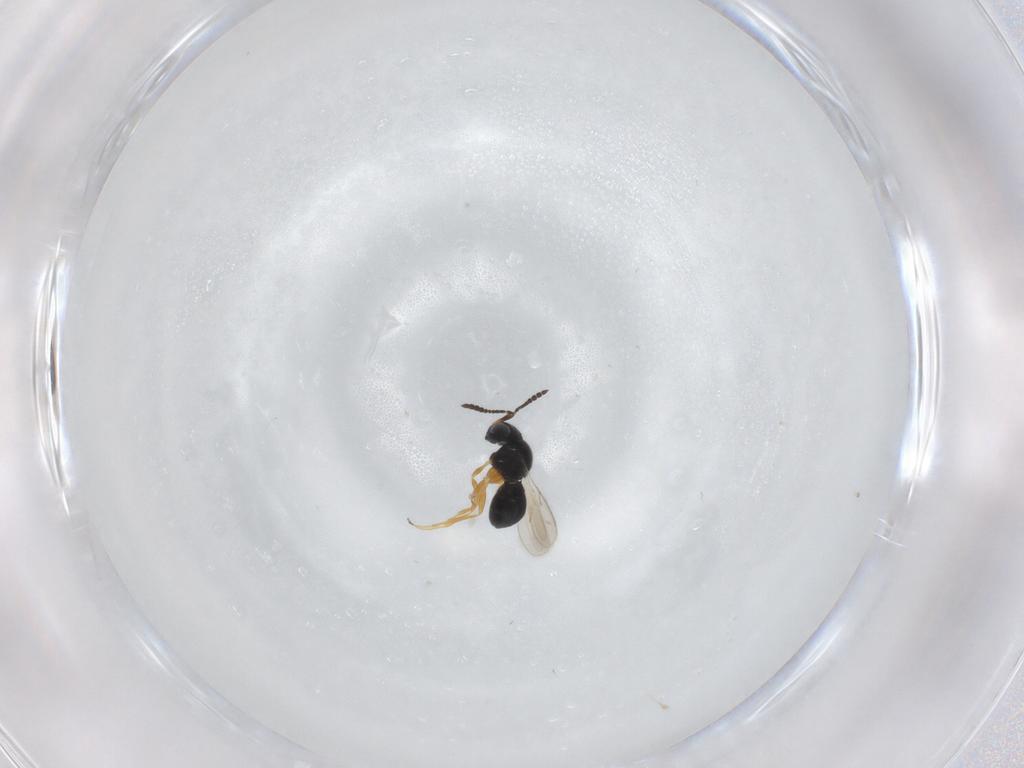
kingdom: Animalia
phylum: Arthropoda
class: Insecta
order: Hymenoptera
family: Scelionidae
